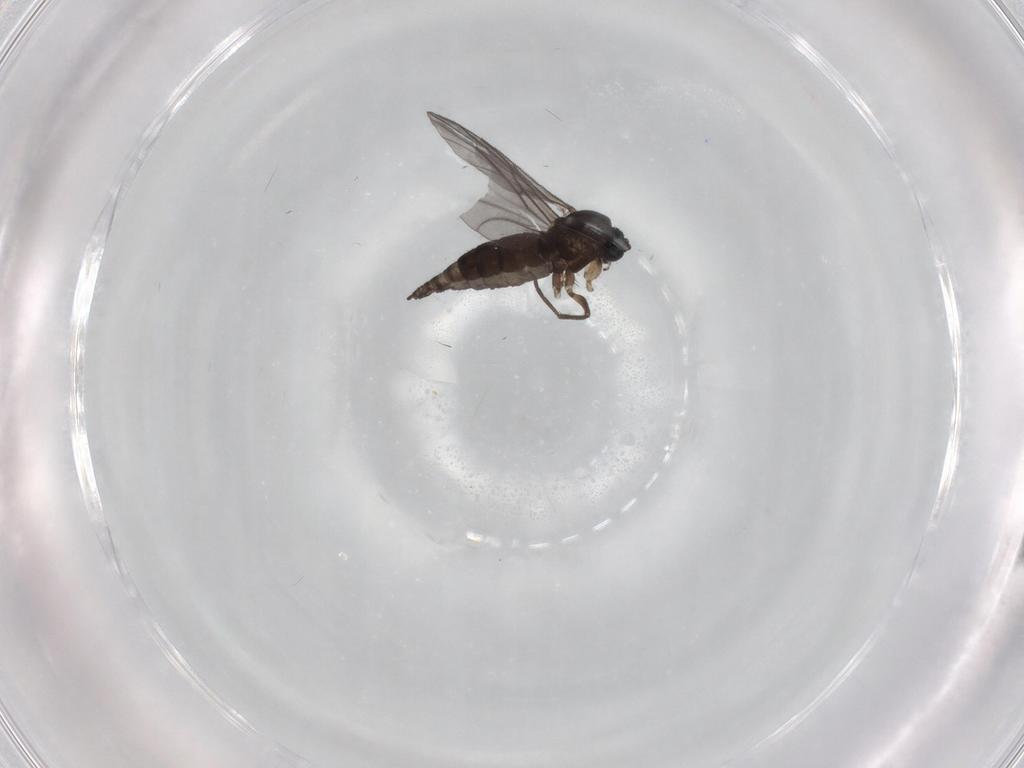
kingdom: Animalia
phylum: Arthropoda
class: Insecta
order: Diptera
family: Sciaridae
